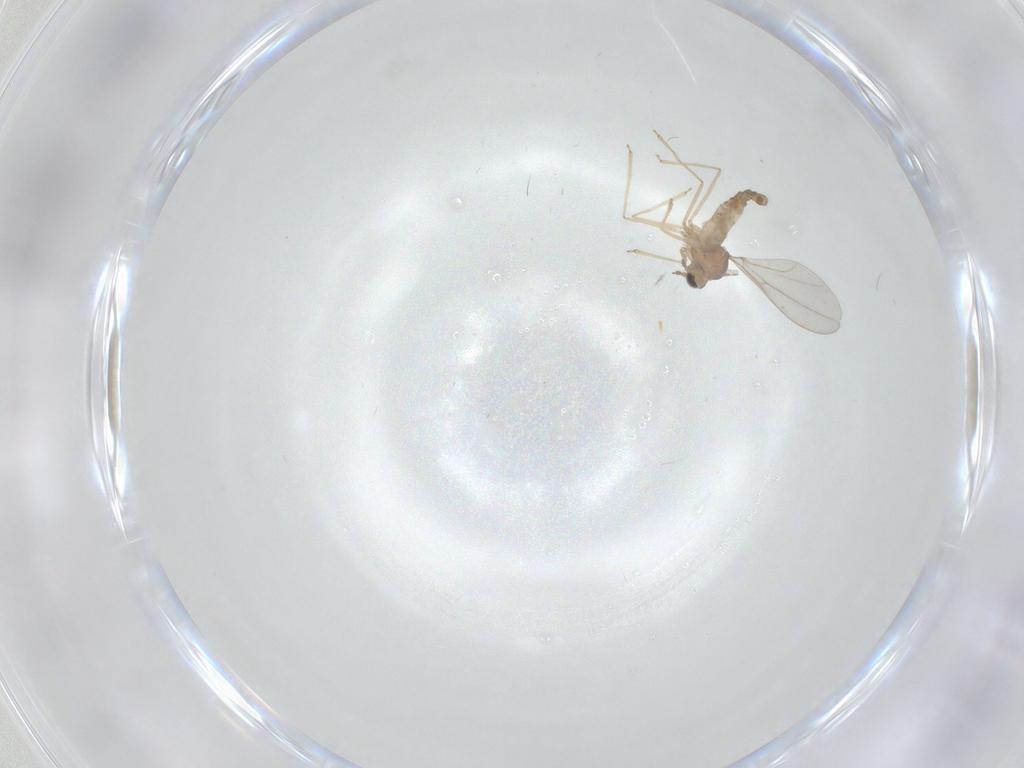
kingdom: Animalia
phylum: Arthropoda
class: Insecta
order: Diptera
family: Cecidomyiidae
